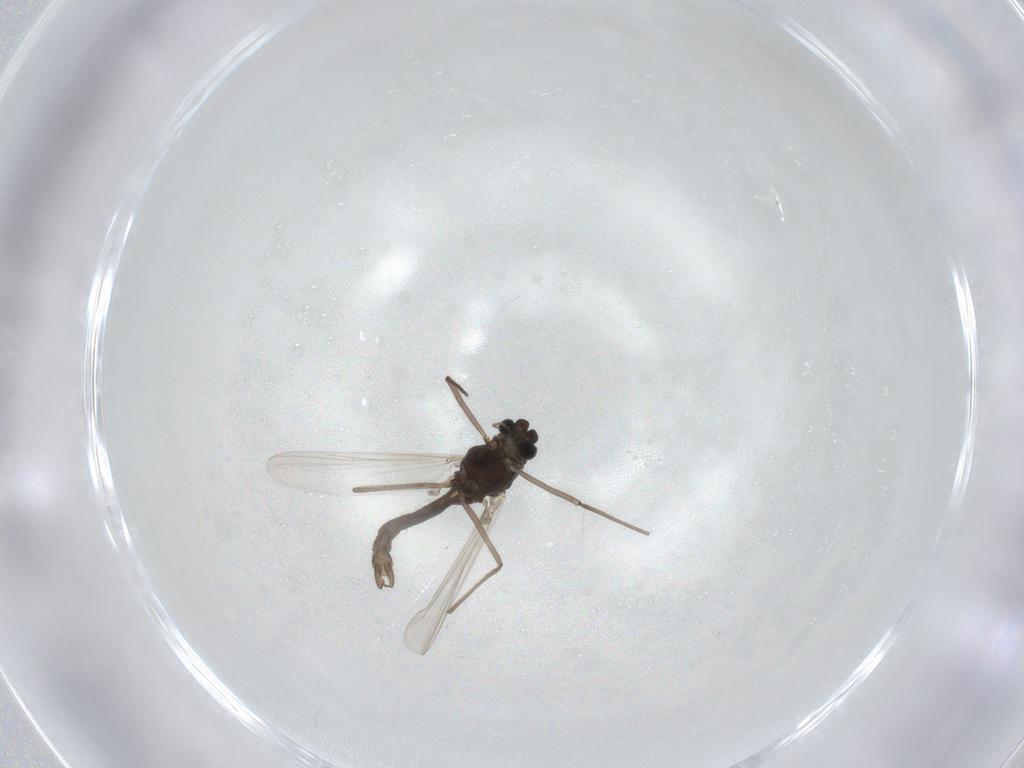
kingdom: Animalia
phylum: Arthropoda
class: Insecta
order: Diptera
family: Chironomidae
